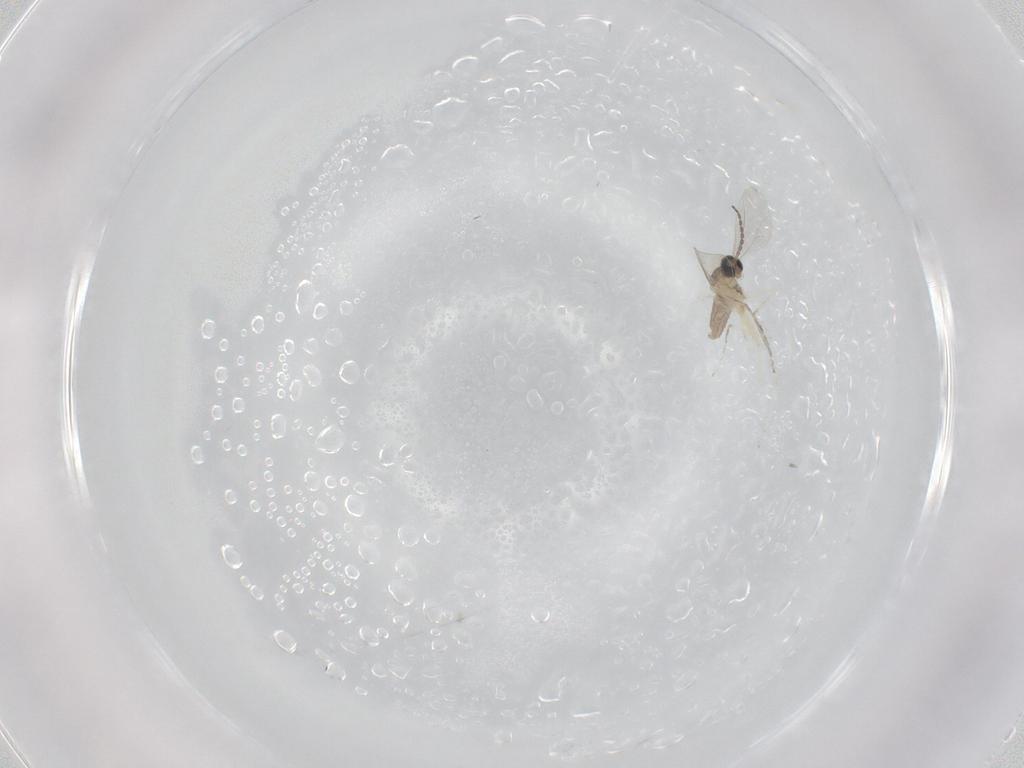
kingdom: Animalia
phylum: Arthropoda
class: Insecta
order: Diptera
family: Cecidomyiidae
